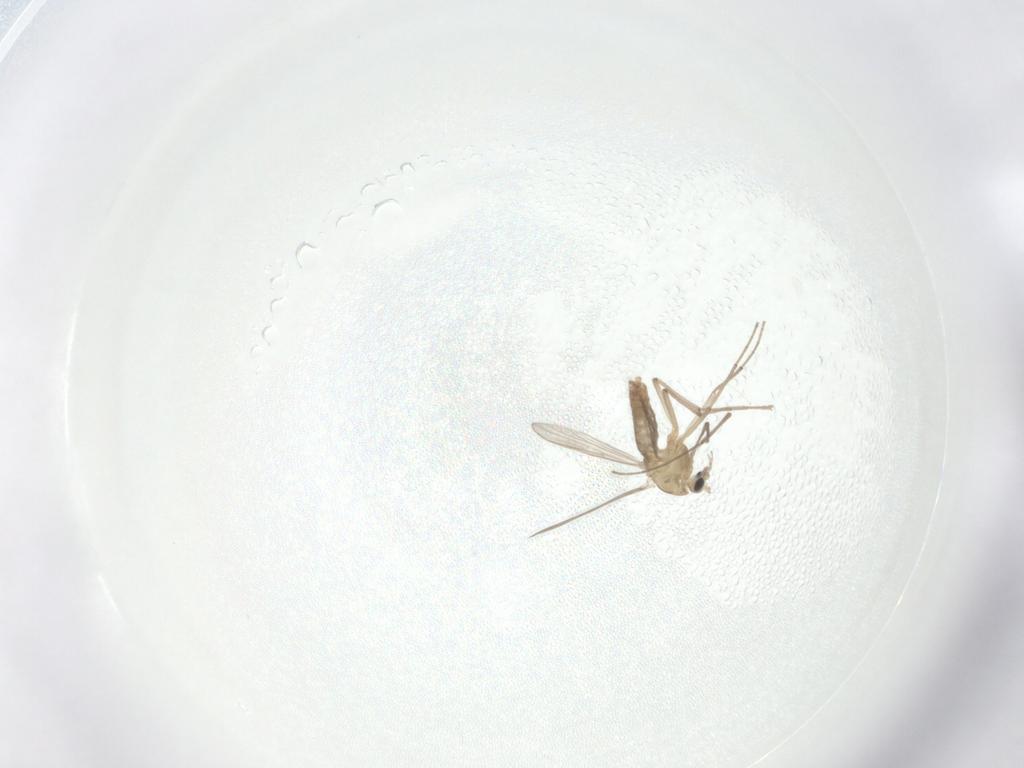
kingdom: Animalia
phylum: Arthropoda
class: Insecta
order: Diptera
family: Chironomidae
